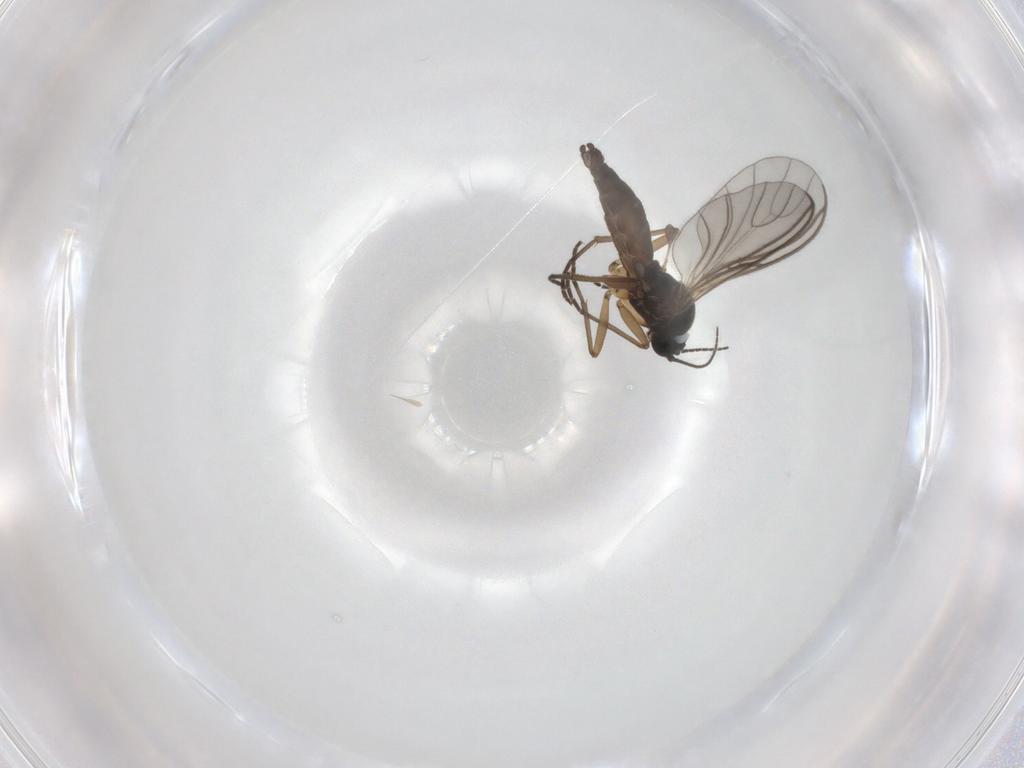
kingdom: Animalia
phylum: Arthropoda
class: Insecta
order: Diptera
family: Sciaridae
